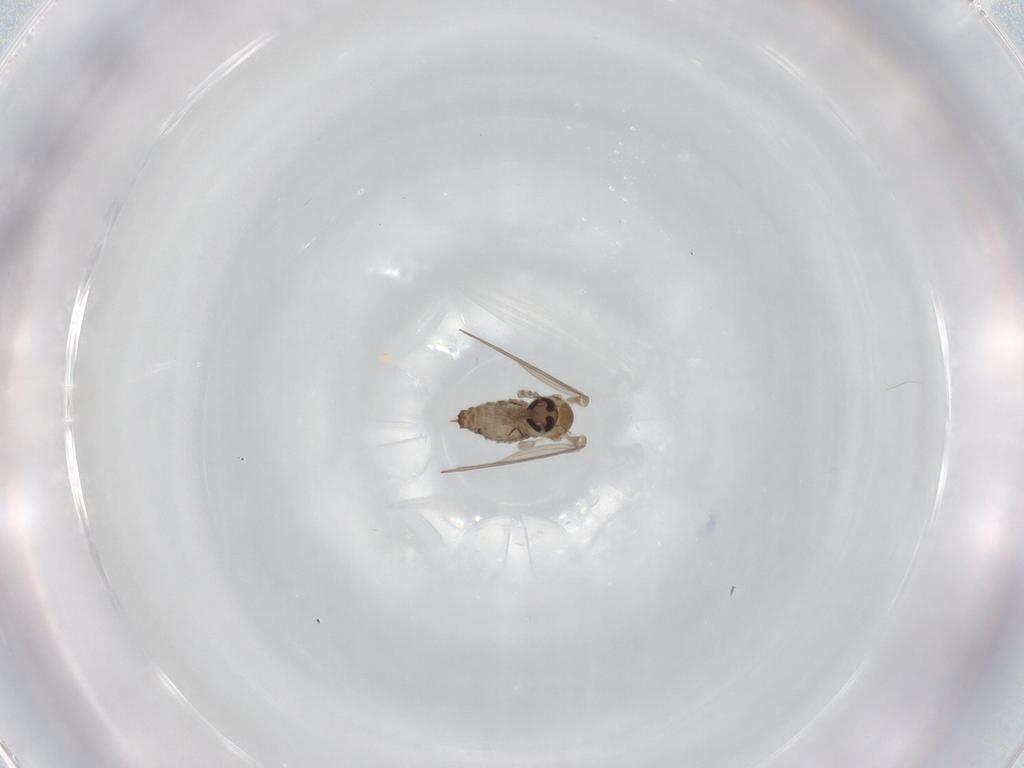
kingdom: Animalia
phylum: Arthropoda
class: Insecta
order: Diptera
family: Psychodidae
